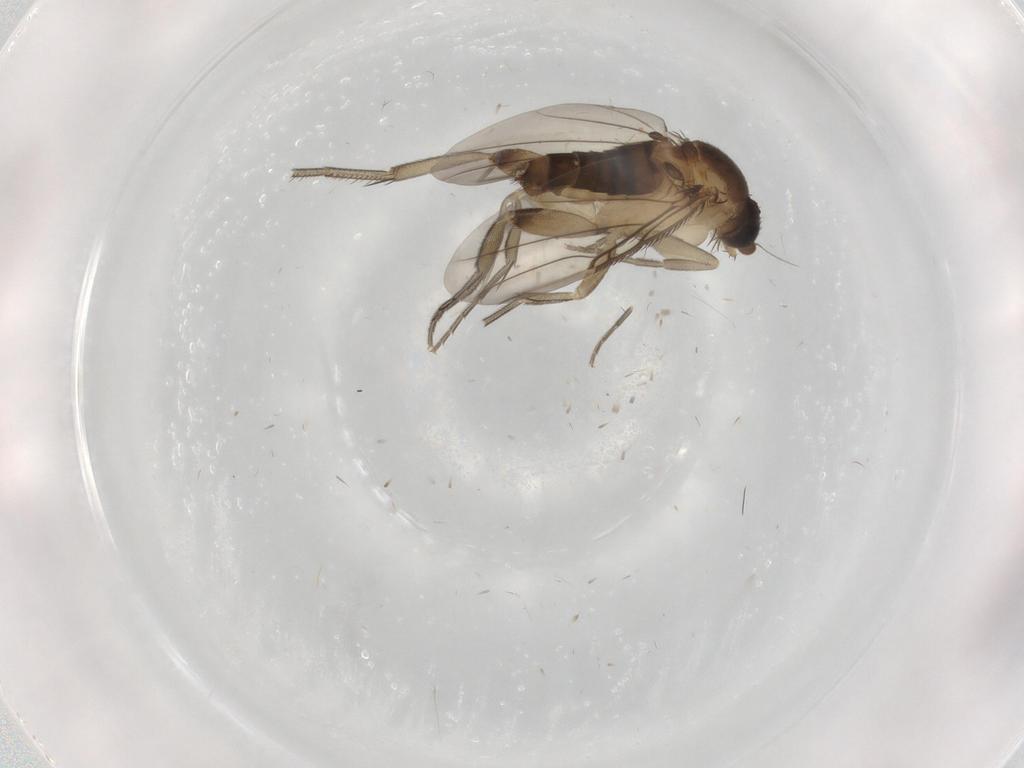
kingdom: Animalia
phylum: Arthropoda
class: Insecta
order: Diptera
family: Phoridae
